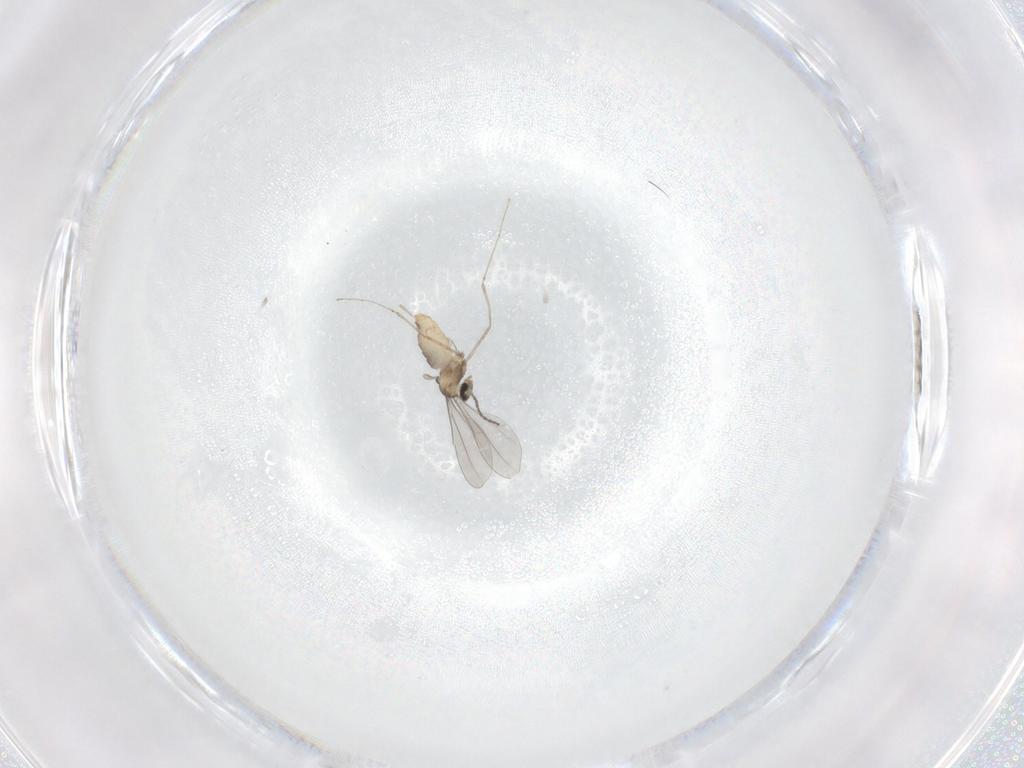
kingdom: Animalia
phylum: Arthropoda
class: Insecta
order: Diptera
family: Cecidomyiidae
